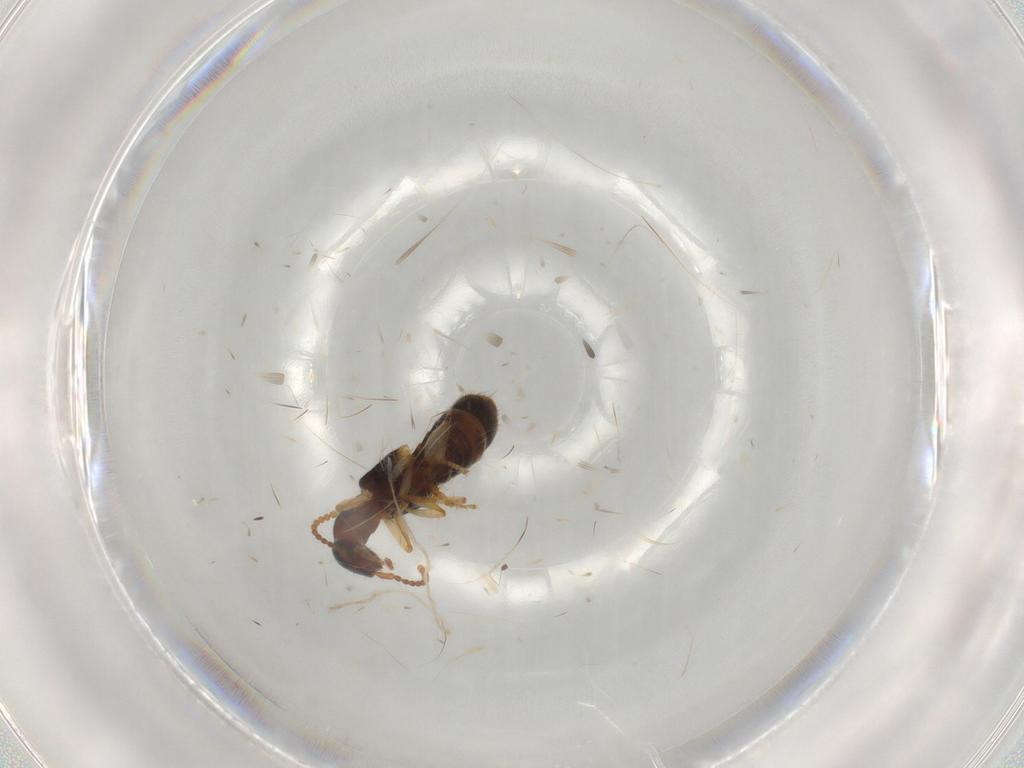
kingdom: Animalia
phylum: Arthropoda
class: Insecta
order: Coleoptera
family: Staphylinidae
